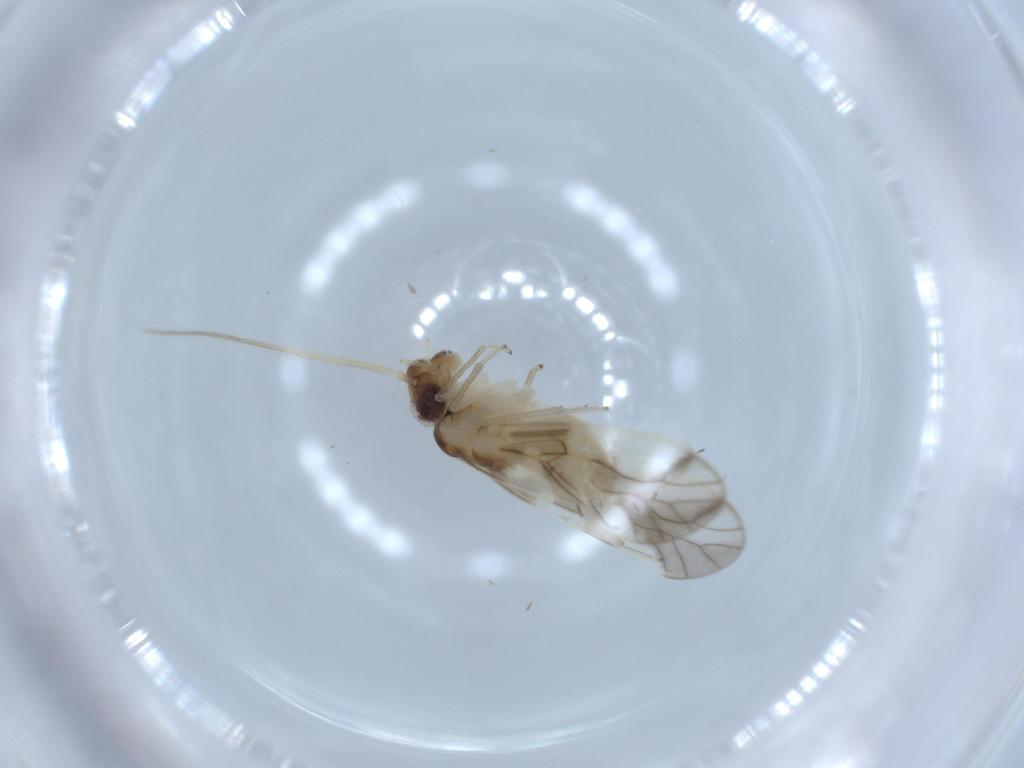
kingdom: Animalia
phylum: Arthropoda
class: Insecta
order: Psocodea
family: Caeciliusidae
